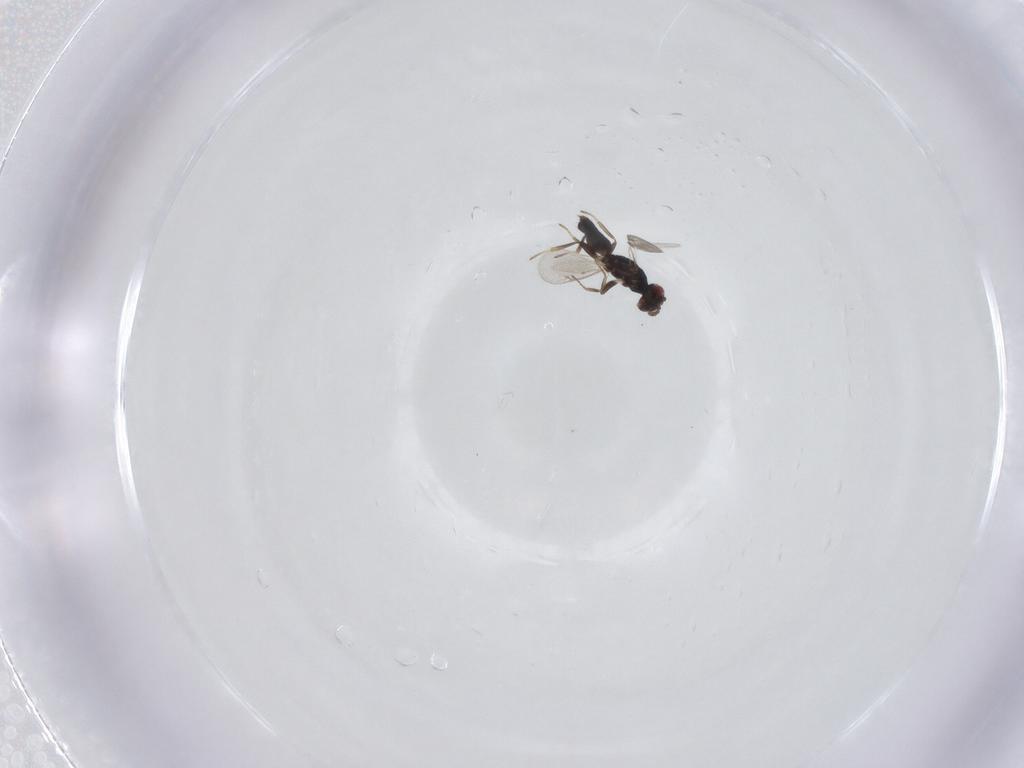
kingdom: Animalia
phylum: Arthropoda
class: Insecta
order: Hymenoptera
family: Eulophidae
